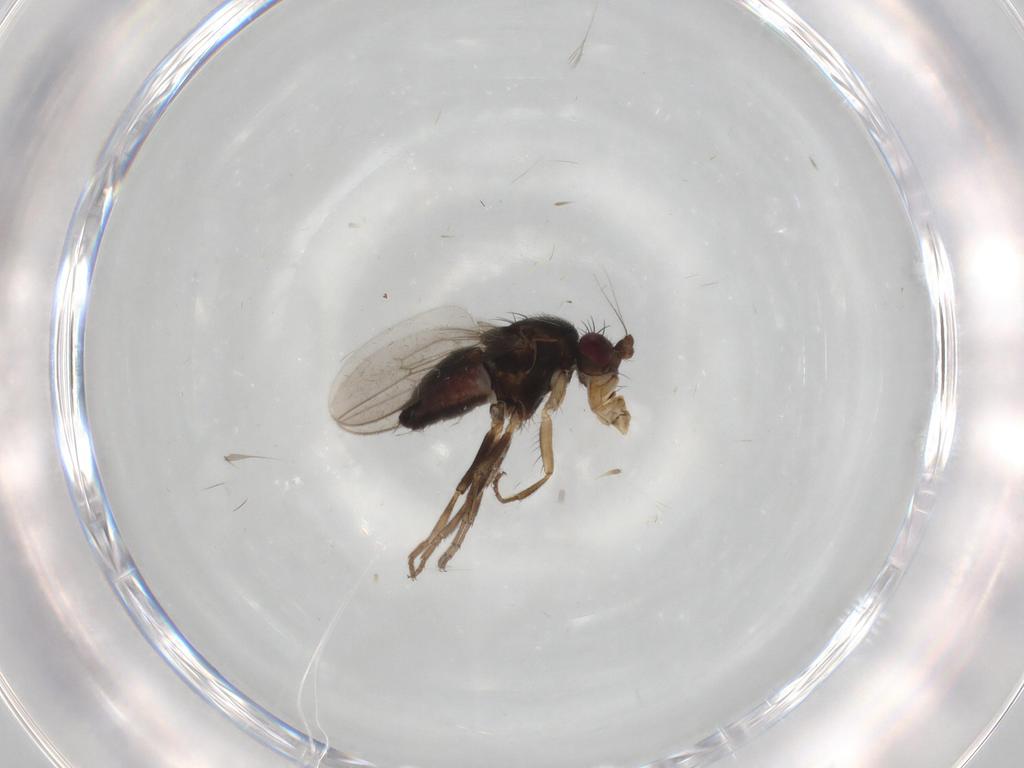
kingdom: Animalia
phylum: Arthropoda
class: Insecta
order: Diptera
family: Sphaeroceridae
